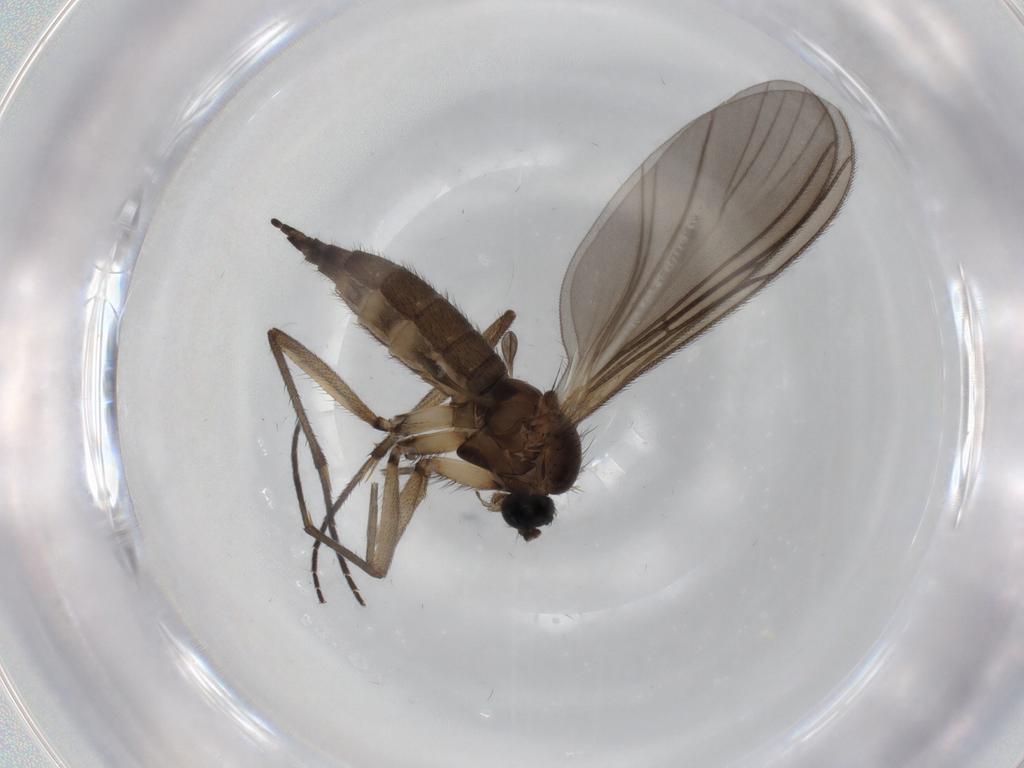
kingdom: Animalia
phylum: Arthropoda
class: Insecta
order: Diptera
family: Sciaridae
